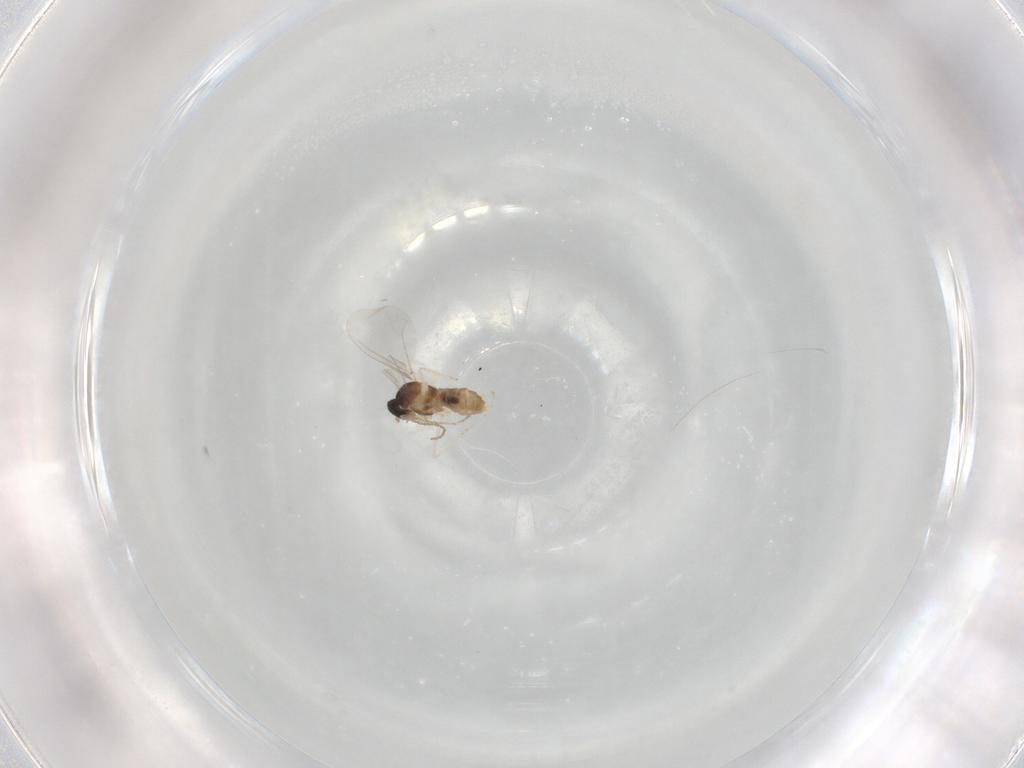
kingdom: Animalia
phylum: Arthropoda
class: Insecta
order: Diptera
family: Cecidomyiidae
